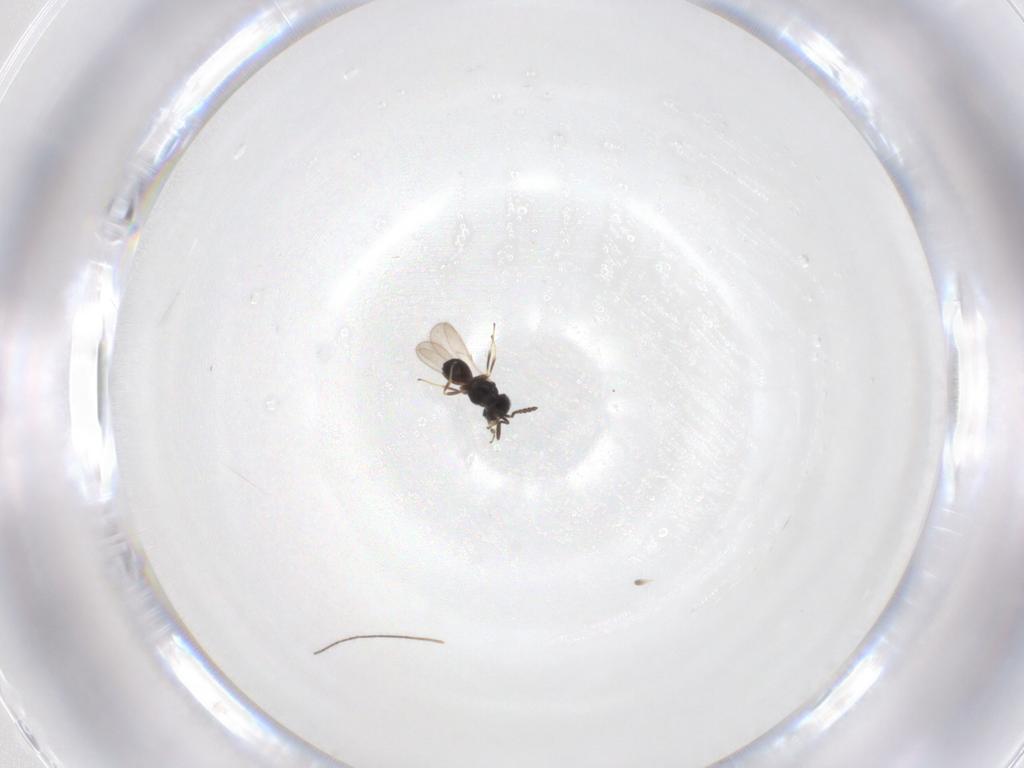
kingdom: Animalia
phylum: Arthropoda
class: Insecta
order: Hymenoptera
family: Scelionidae
